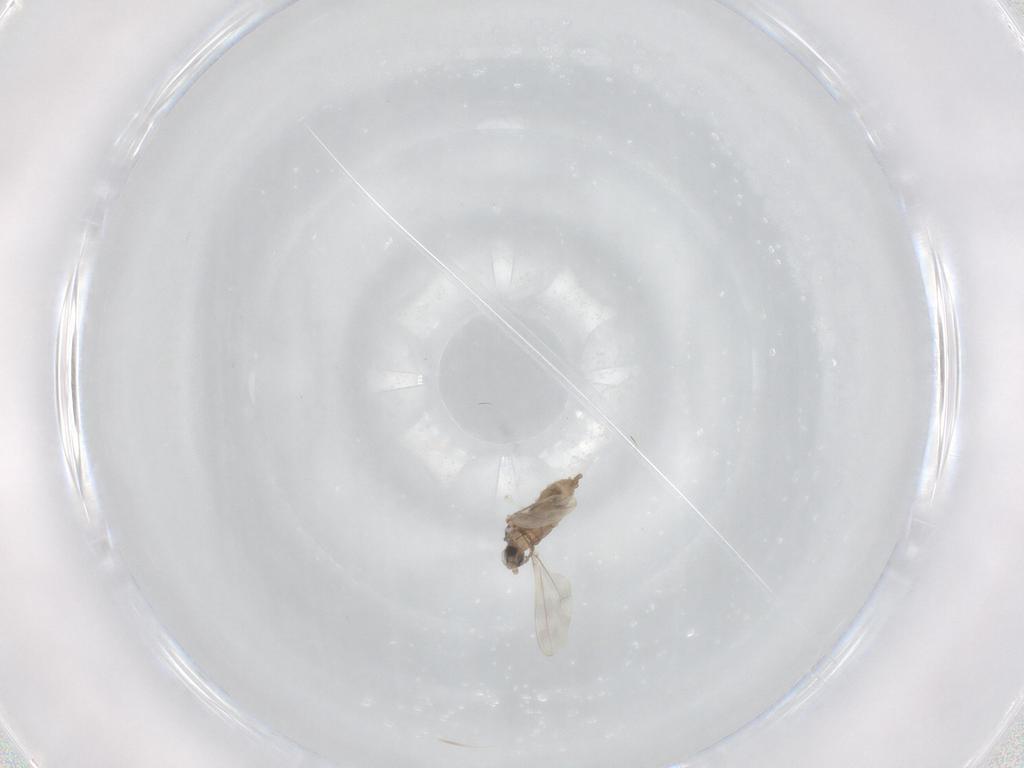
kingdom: Animalia
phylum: Arthropoda
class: Insecta
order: Diptera
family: Cecidomyiidae
